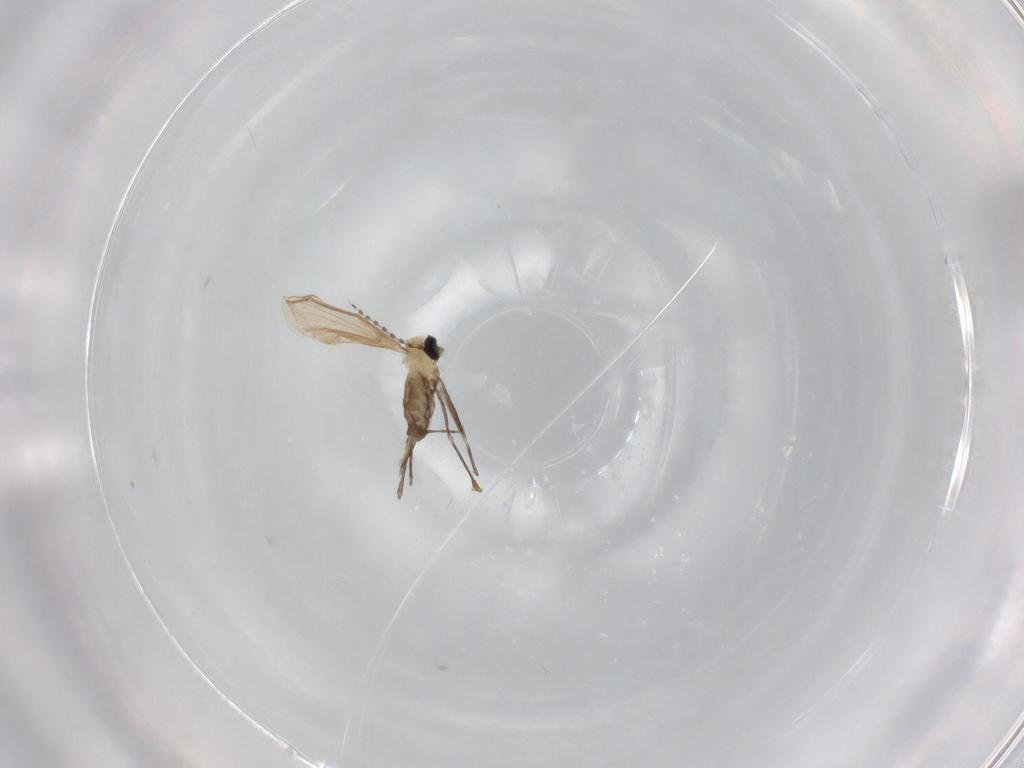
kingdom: Animalia
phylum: Arthropoda
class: Insecta
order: Diptera
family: Cecidomyiidae
